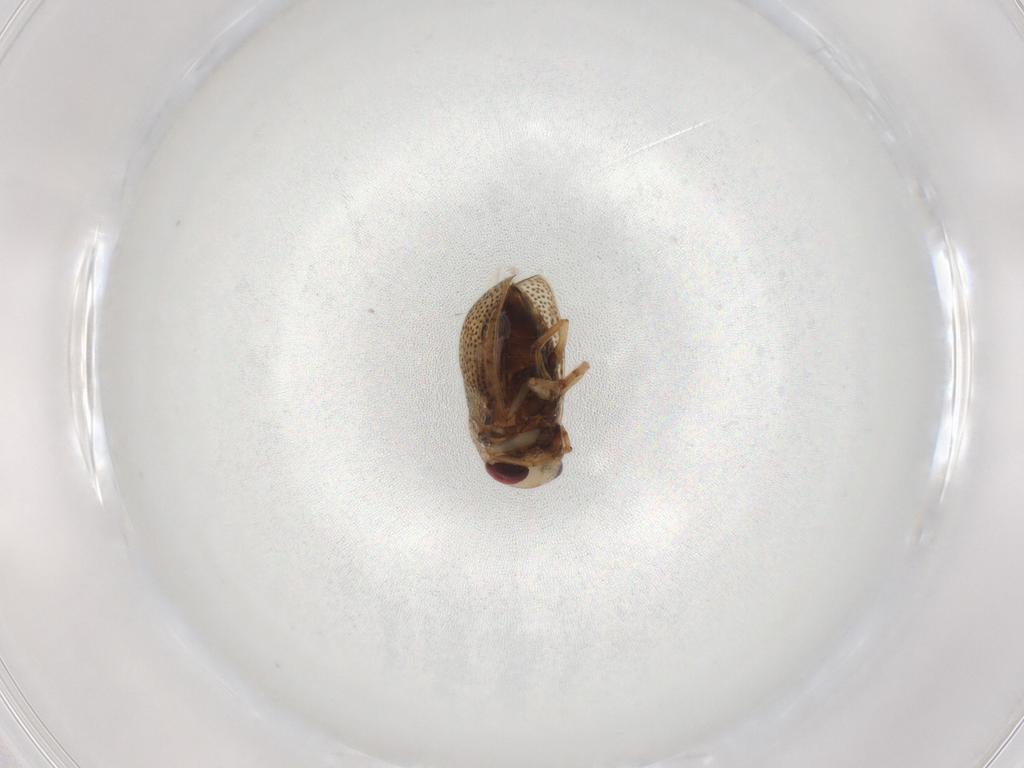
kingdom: Animalia
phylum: Arthropoda
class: Insecta
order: Hemiptera
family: Pleidae
